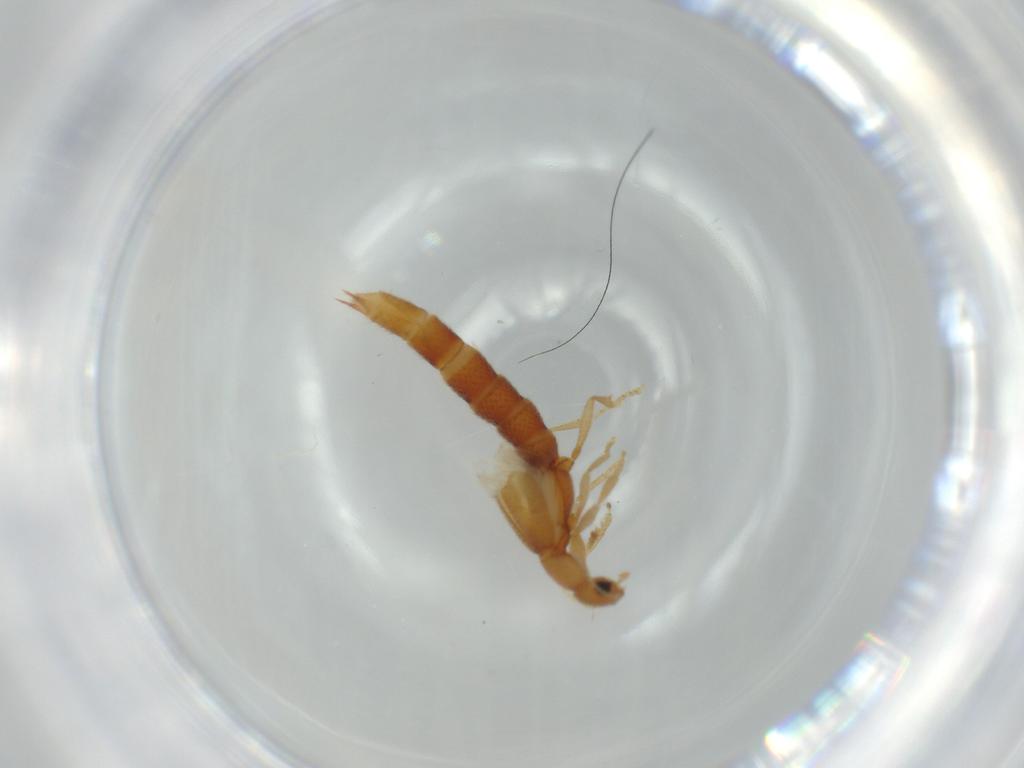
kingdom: Animalia
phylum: Arthropoda
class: Insecta
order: Coleoptera
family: Staphylinidae
